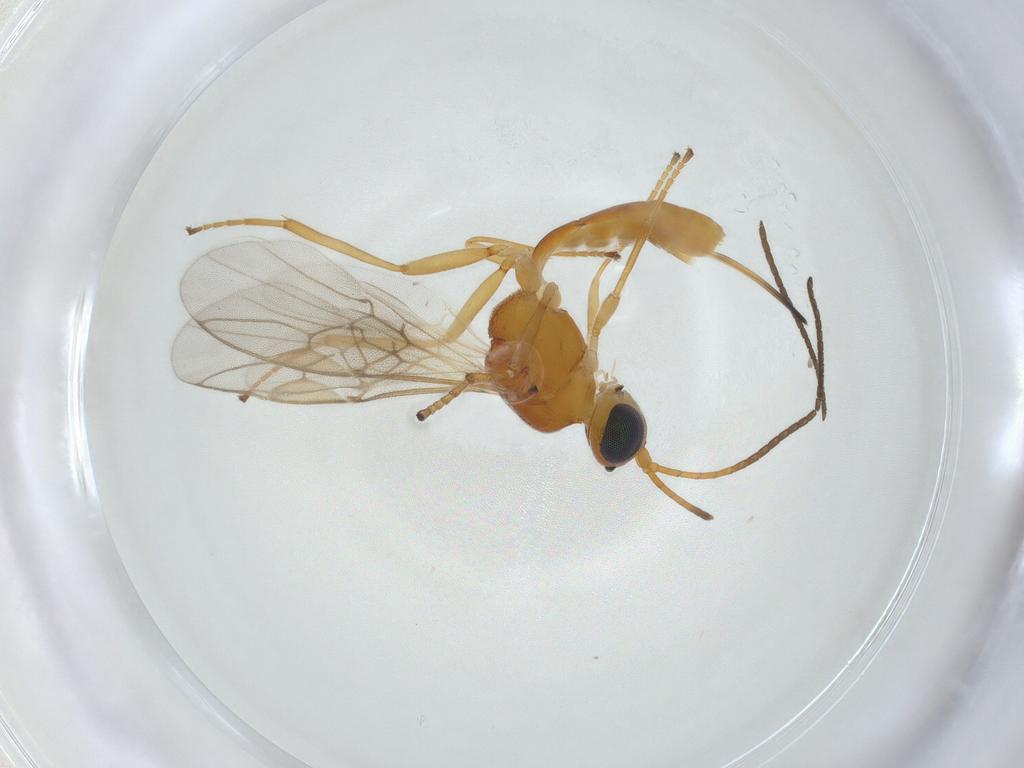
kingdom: Animalia
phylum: Arthropoda
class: Insecta
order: Hymenoptera
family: Braconidae
